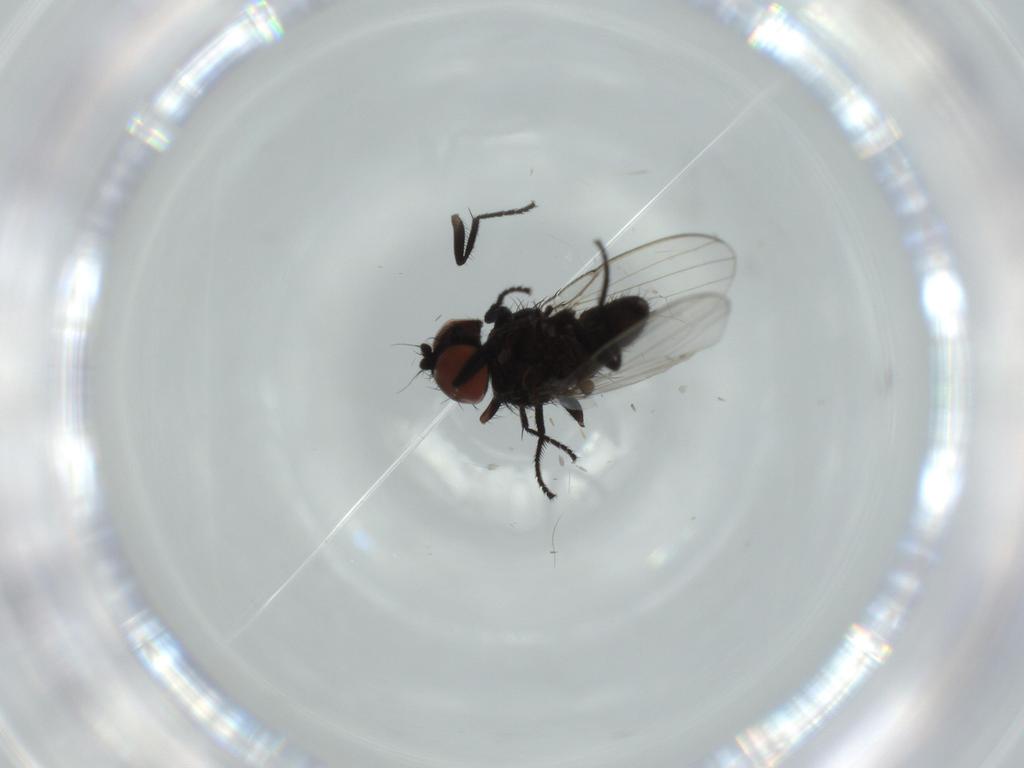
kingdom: Animalia
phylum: Arthropoda
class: Insecta
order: Diptera
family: Milichiidae
